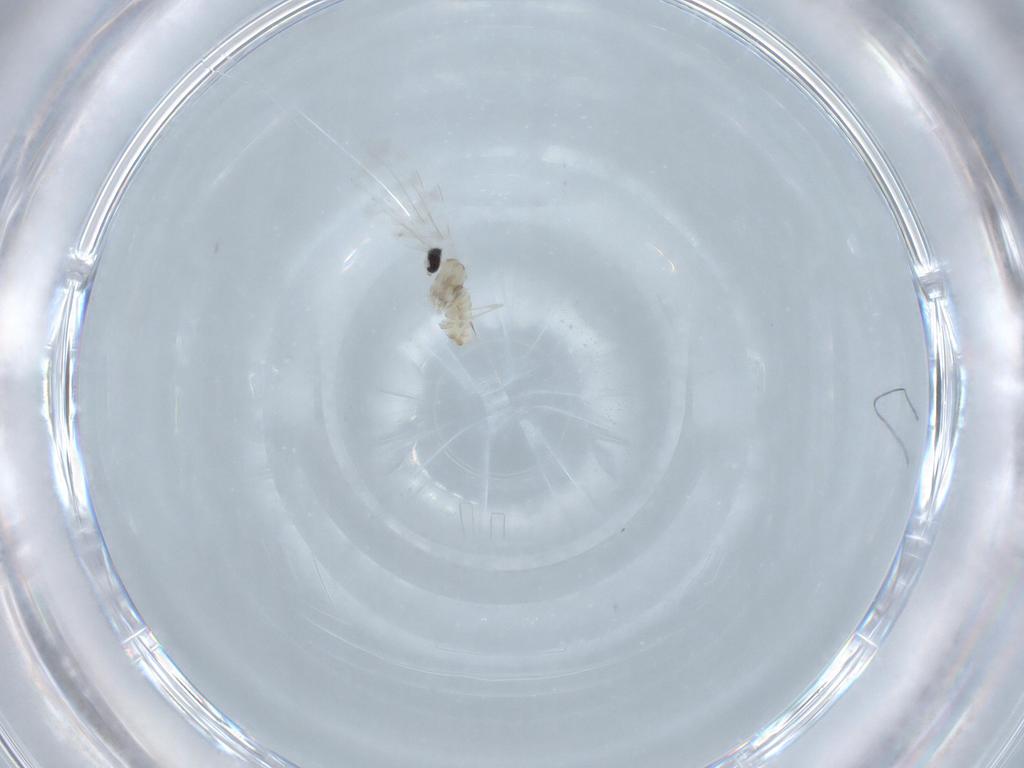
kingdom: Animalia
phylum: Arthropoda
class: Insecta
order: Diptera
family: Cecidomyiidae
